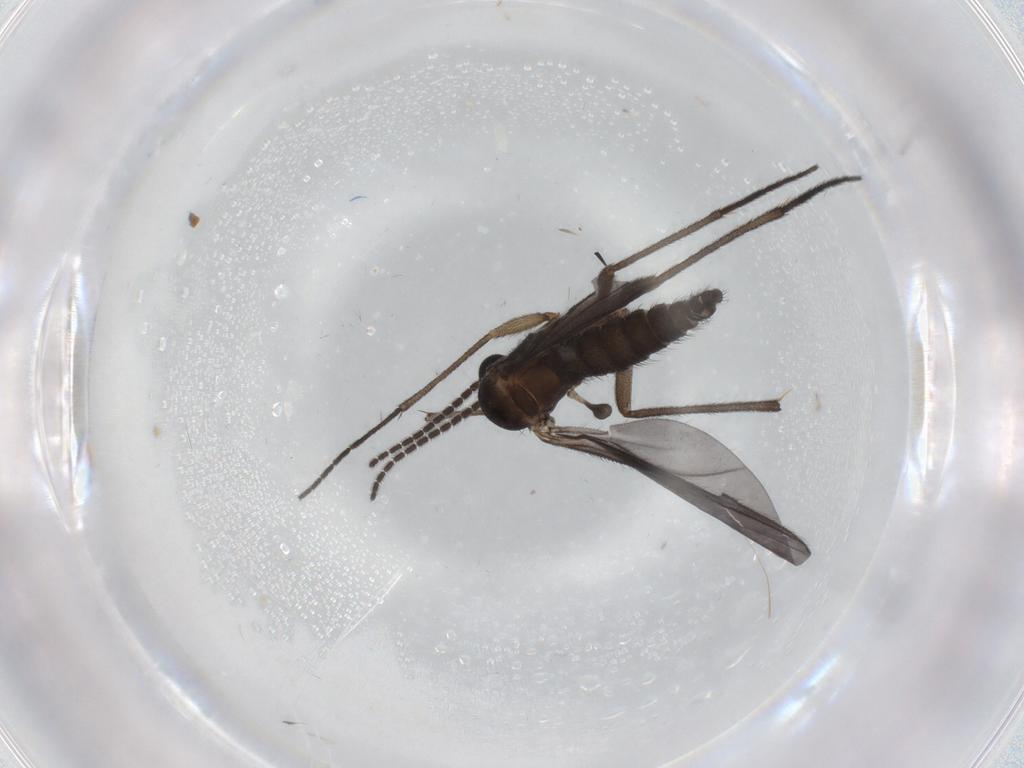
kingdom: Animalia
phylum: Arthropoda
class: Insecta
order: Diptera
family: Sciaridae
